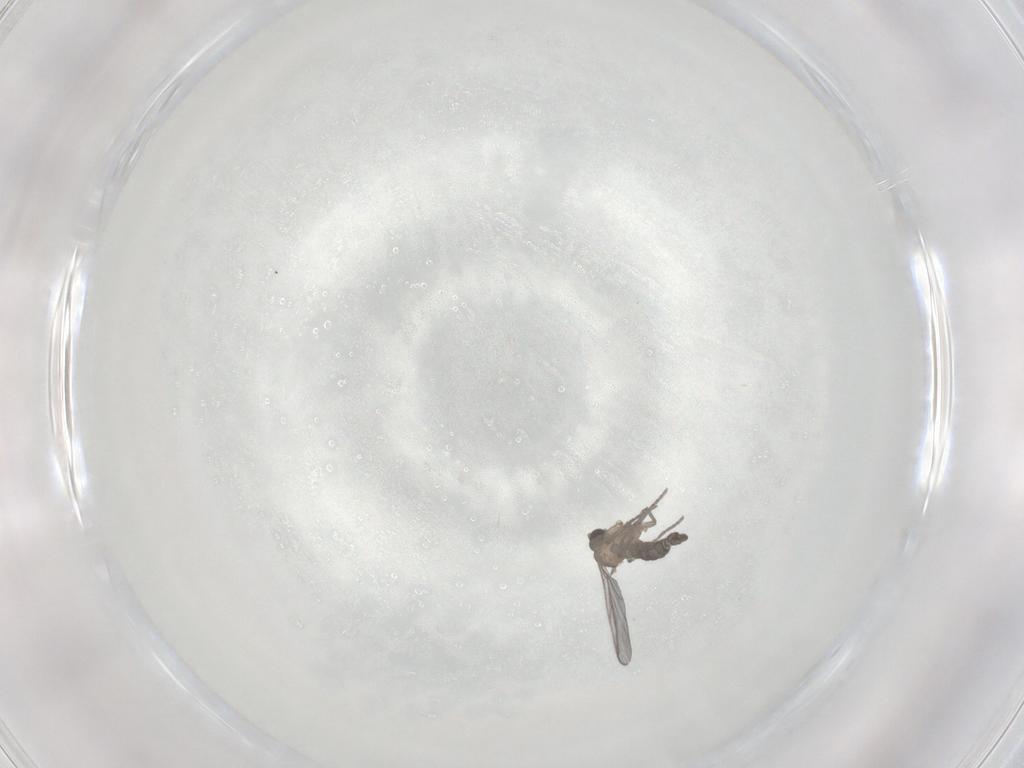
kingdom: Animalia
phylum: Arthropoda
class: Insecta
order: Diptera
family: Sciaridae
